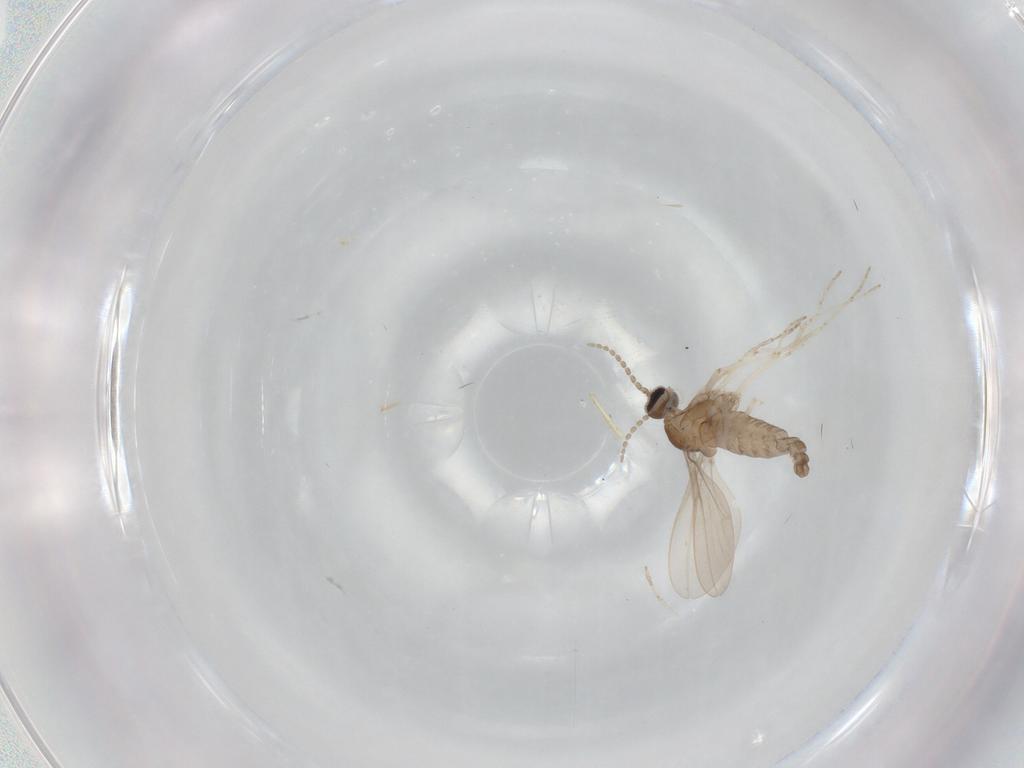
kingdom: Animalia
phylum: Arthropoda
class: Insecta
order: Diptera
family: Cecidomyiidae
